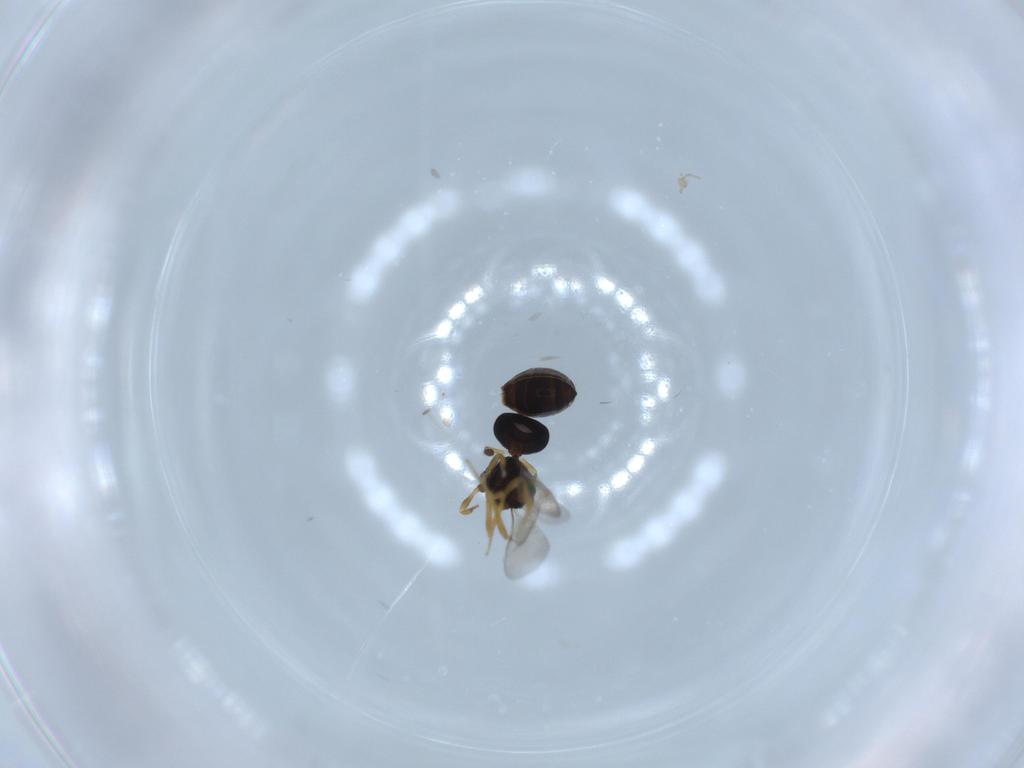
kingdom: Animalia
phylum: Arthropoda
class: Insecta
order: Hymenoptera
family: Scelionidae
